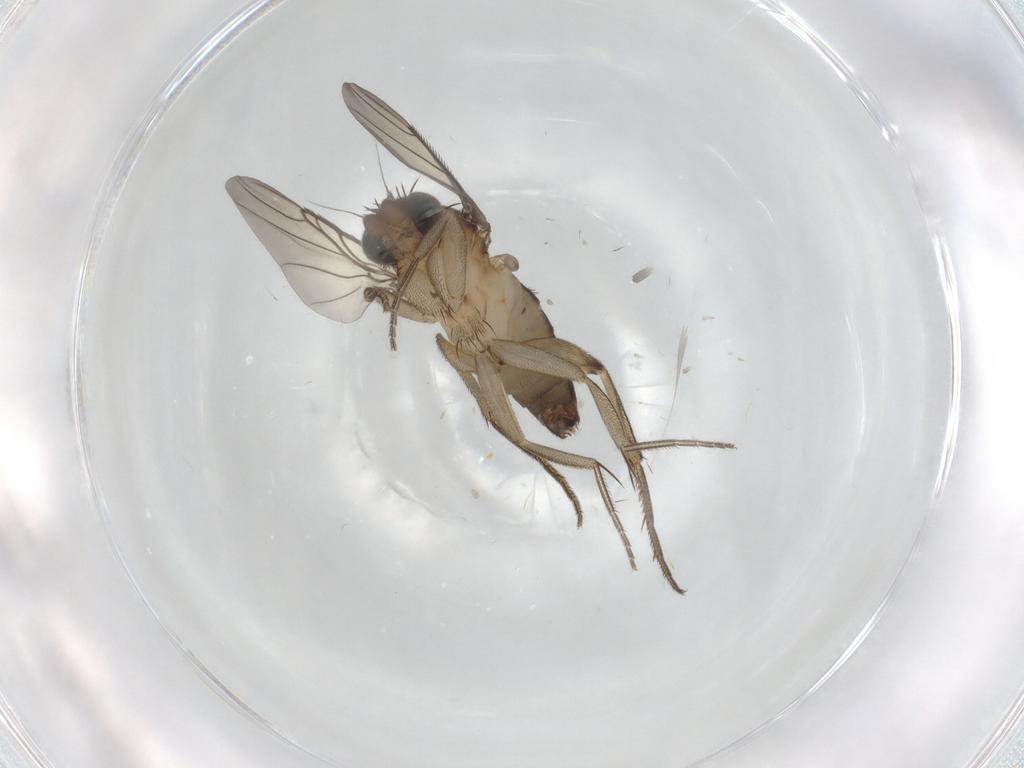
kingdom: Animalia
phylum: Arthropoda
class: Insecta
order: Diptera
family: Phoridae
